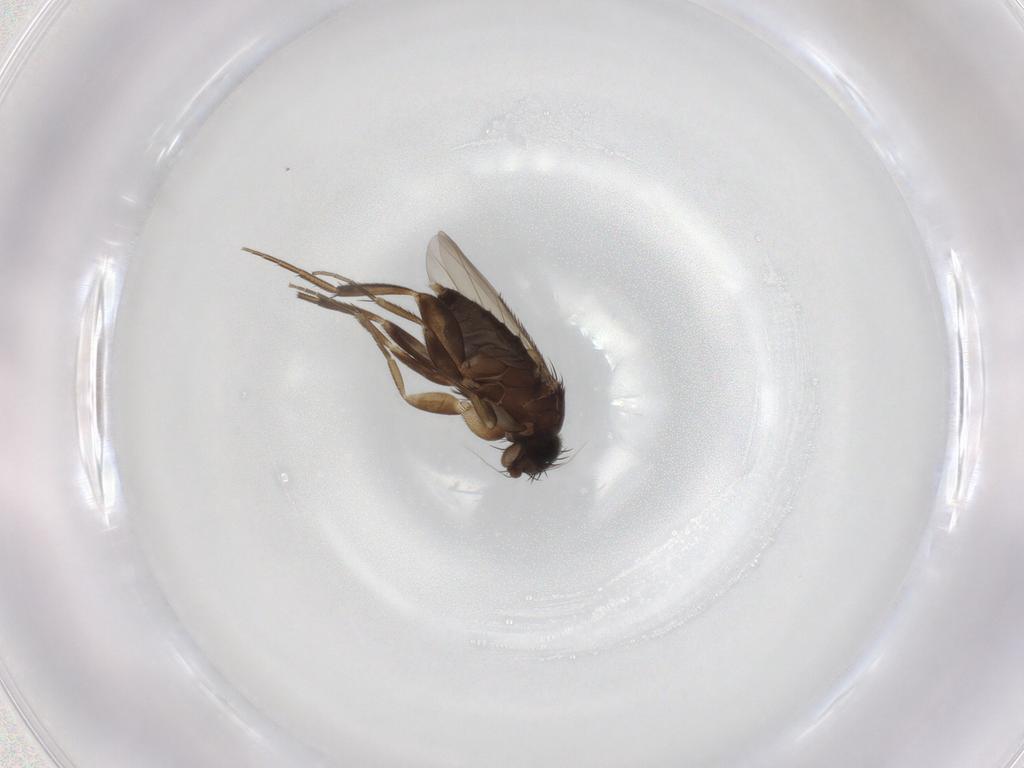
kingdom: Animalia
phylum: Arthropoda
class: Insecta
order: Diptera
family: Phoridae
